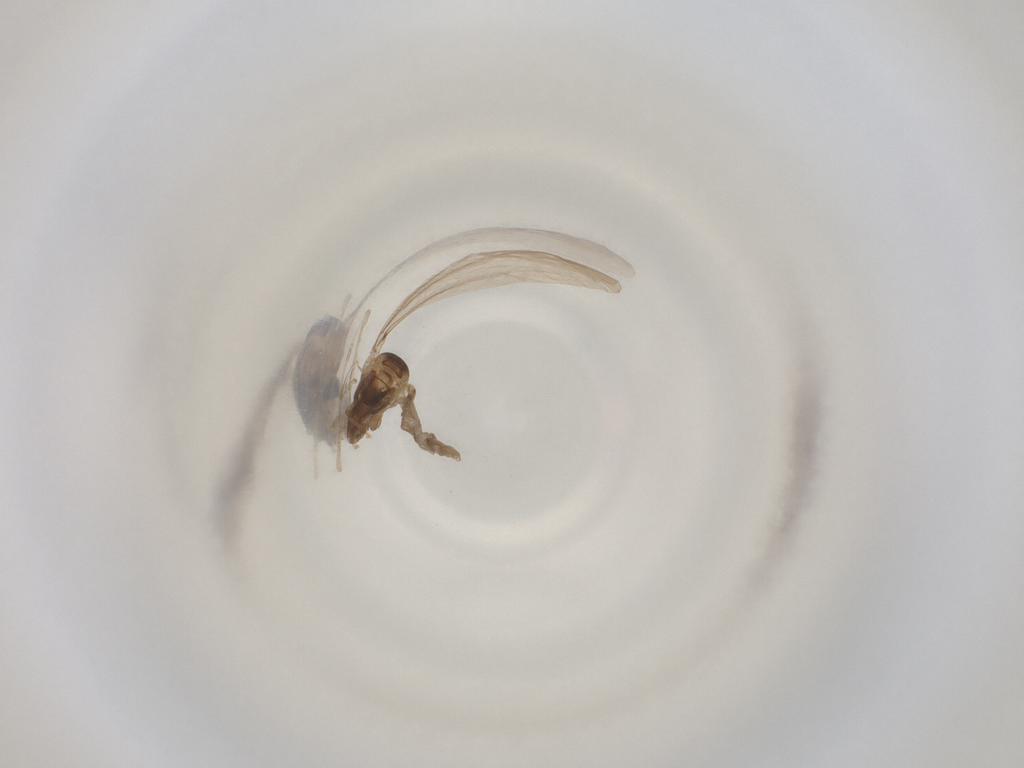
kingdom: Animalia
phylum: Arthropoda
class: Insecta
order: Diptera
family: Cecidomyiidae
